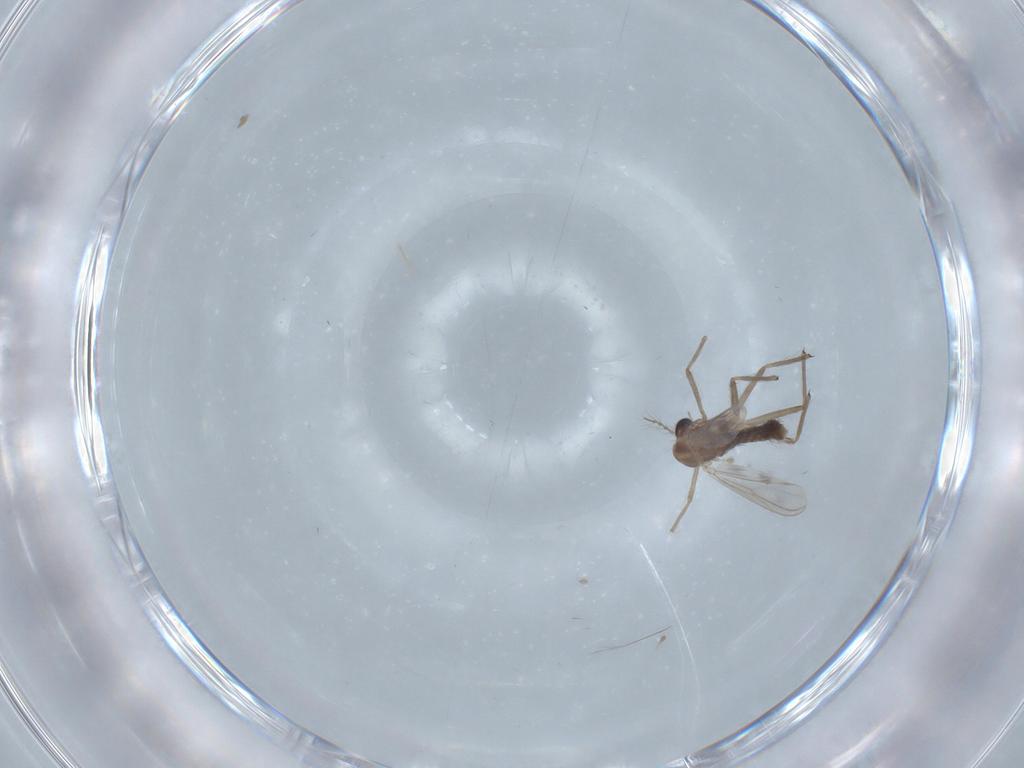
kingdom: Animalia
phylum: Arthropoda
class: Insecta
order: Diptera
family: Chironomidae
